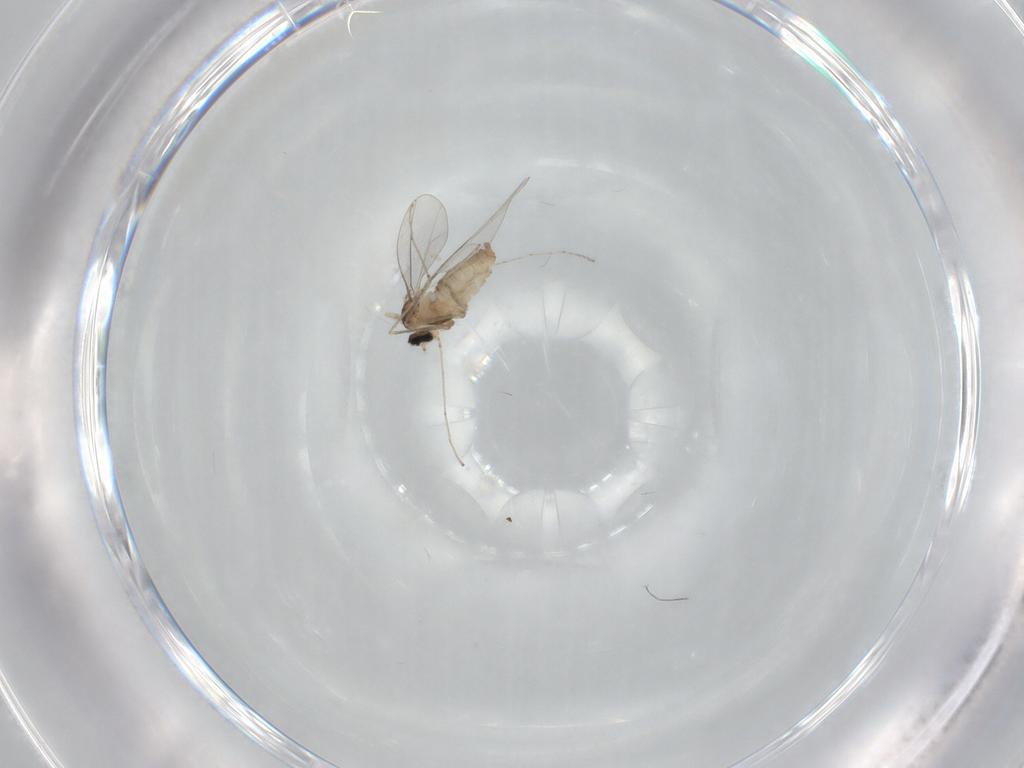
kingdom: Animalia
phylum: Arthropoda
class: Insecta
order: Diptera
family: Cecidomyiidae
